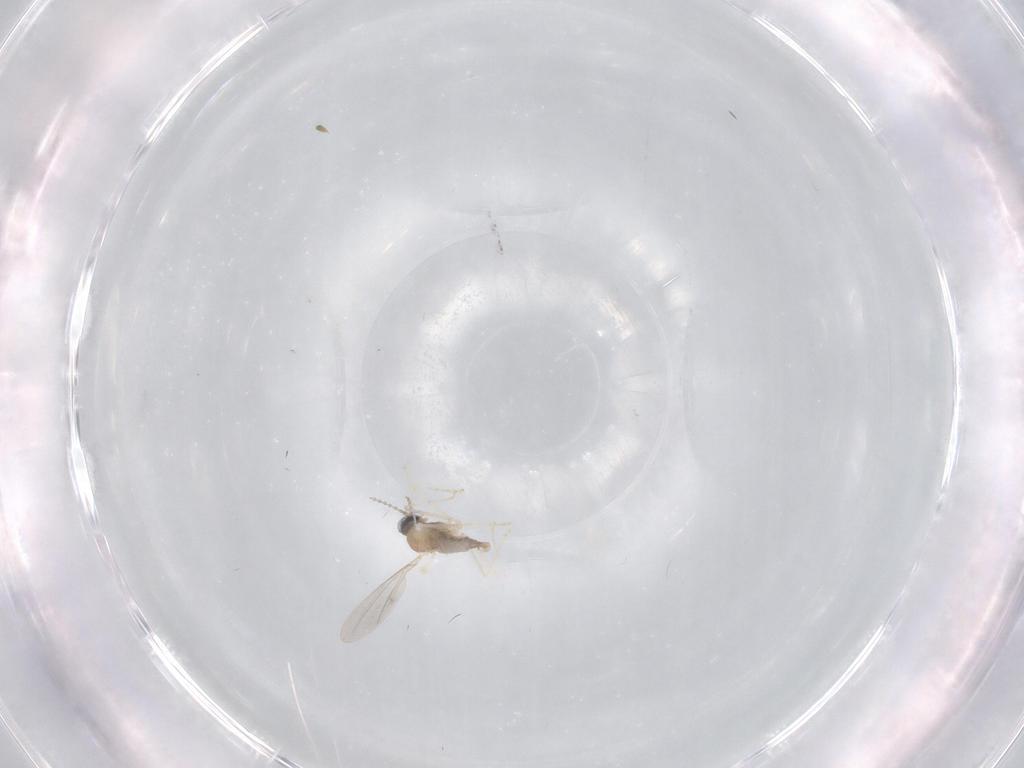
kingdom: Animalia
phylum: Arthropoda
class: Insecta
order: Diptera
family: Cecidomyiidae
